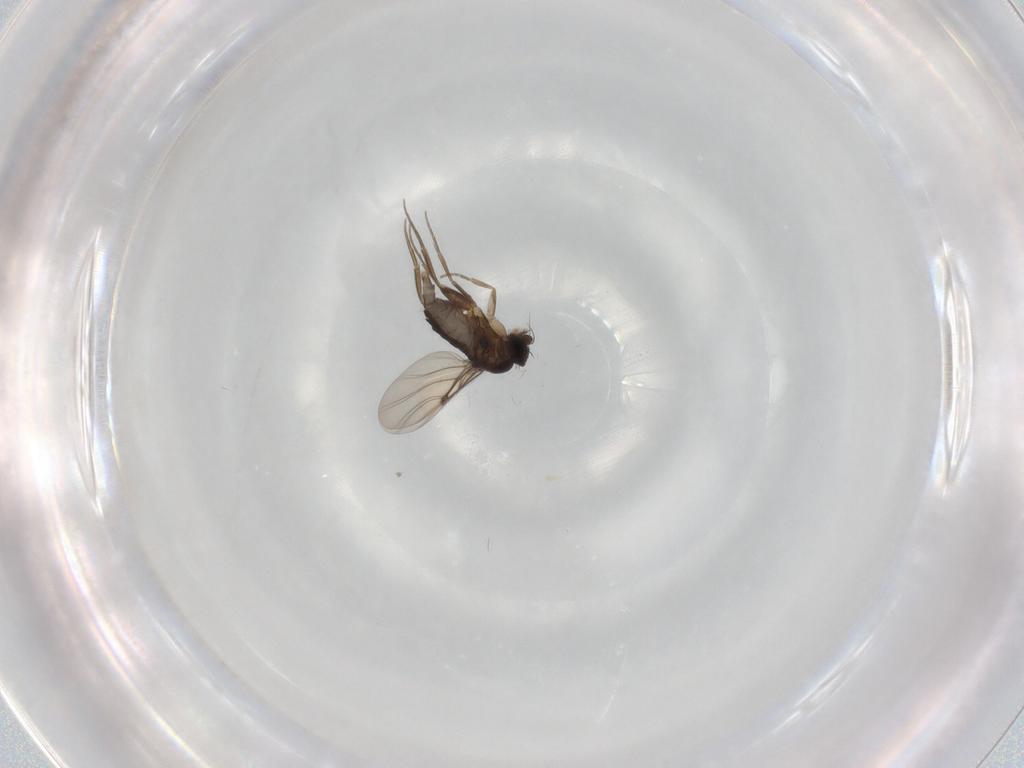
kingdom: Animalia
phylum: Arthropoda
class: Insecta
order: Diptera
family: Phoridae
